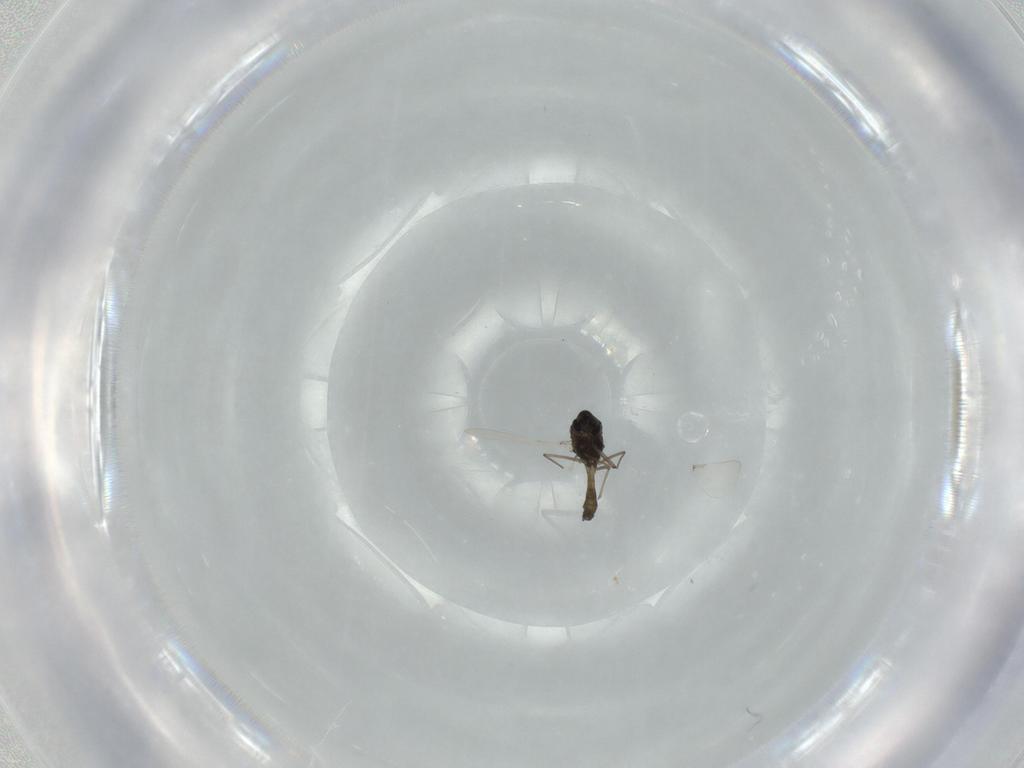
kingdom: Animalia
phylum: Arthropoda
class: Insecta
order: Diptera
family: Chironomidae
